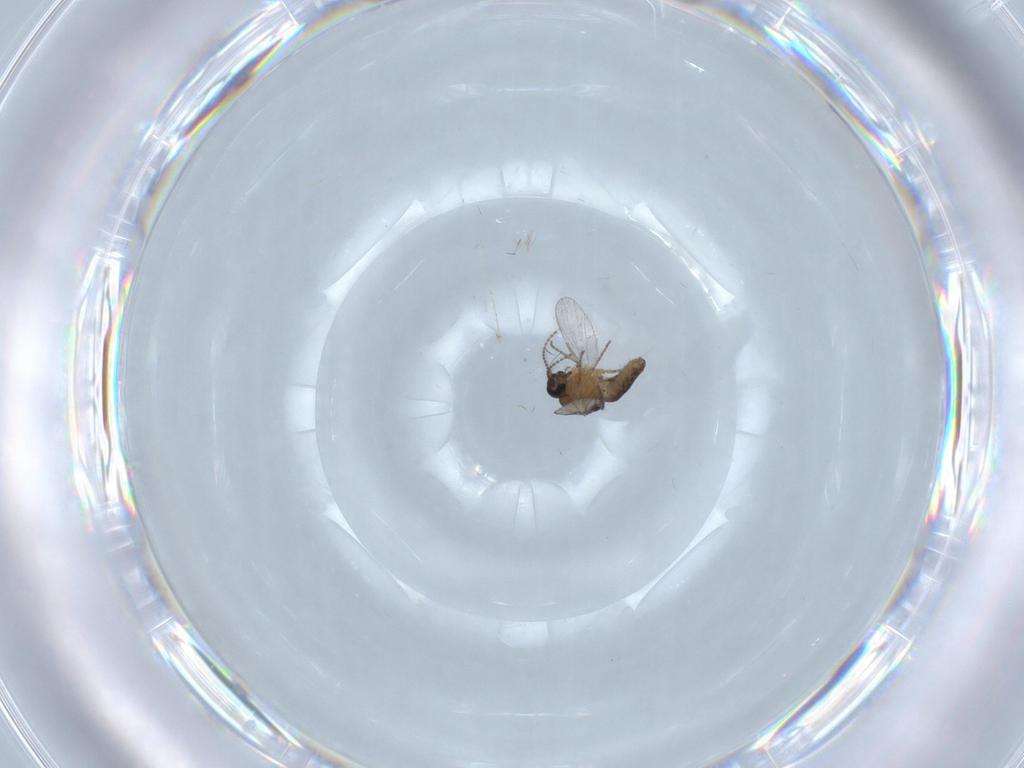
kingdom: Animalia
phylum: Arthropoda
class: Insecta
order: Diptera
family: Ceratopogonidae
